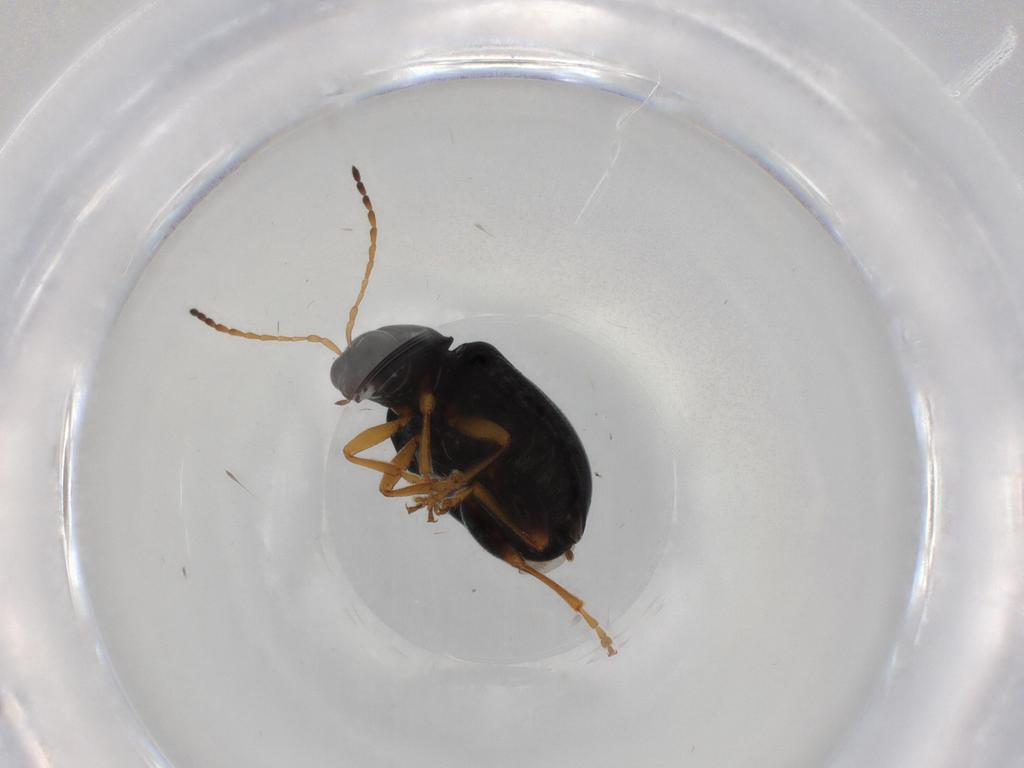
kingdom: Animalia
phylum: Arthropoda
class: Insecta
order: Coleoptera
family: Chrysomelidae
